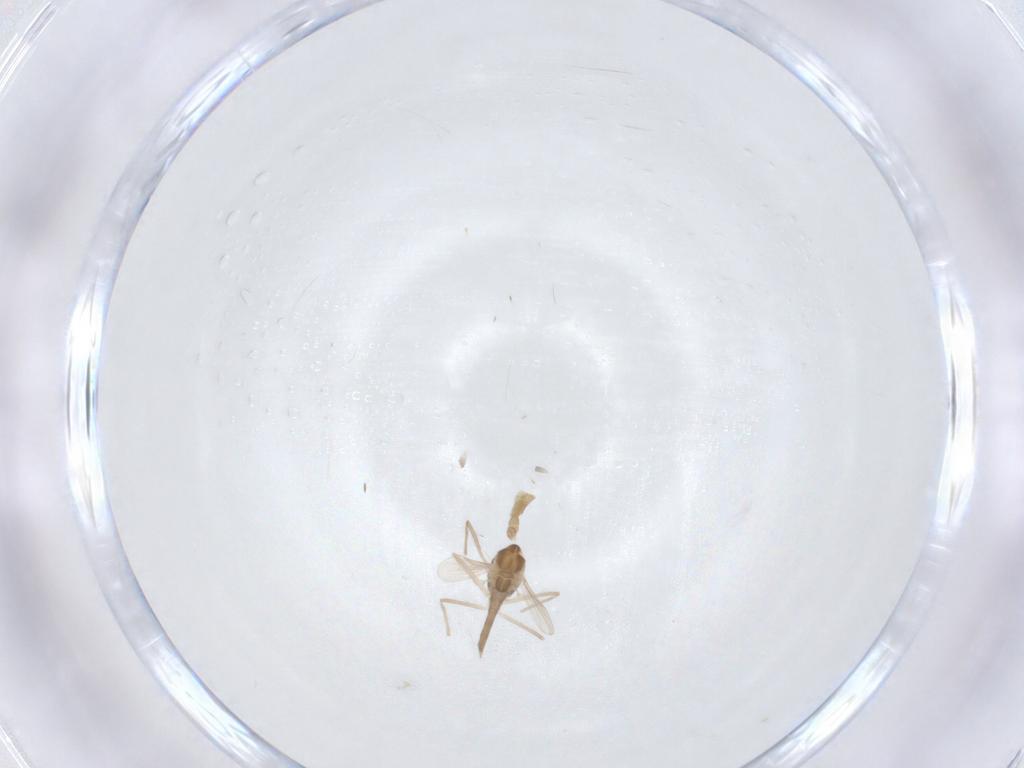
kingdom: Animalia
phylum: Arthropoda
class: Insecta
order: Diptera
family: Chironomidae
